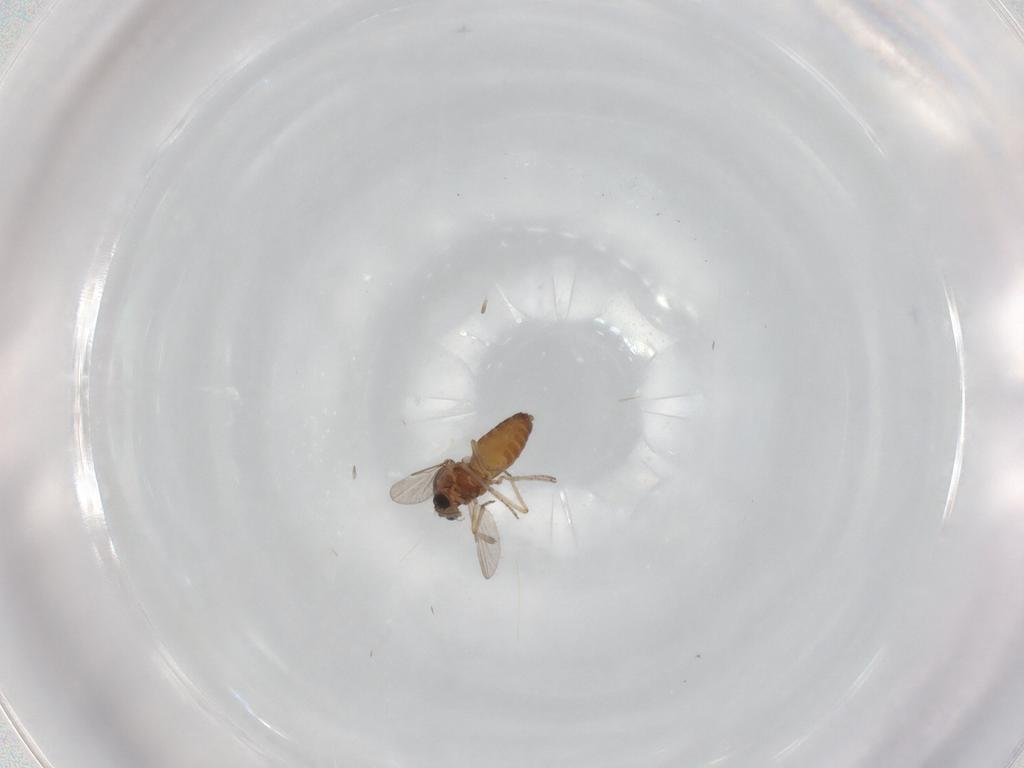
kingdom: Animalia
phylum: Arthropoda
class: Insecta
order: Diptera
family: Ceratopogonidae
